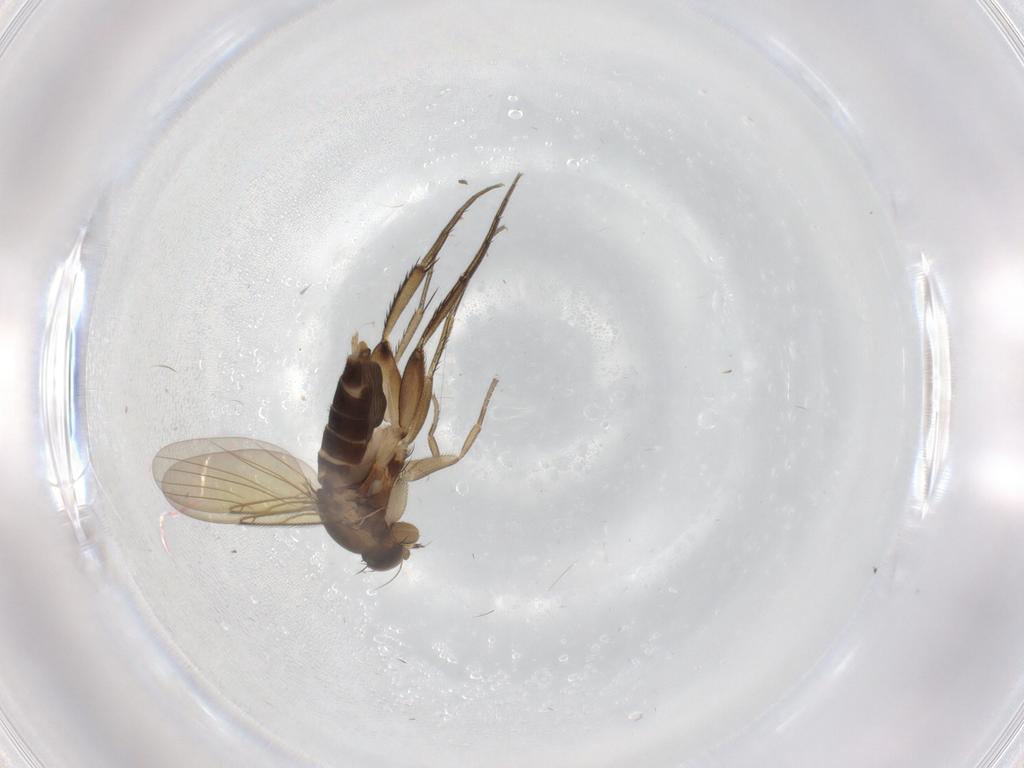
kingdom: Animalia
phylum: Arthropoda
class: Insecta
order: Diptera
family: Phoridae
